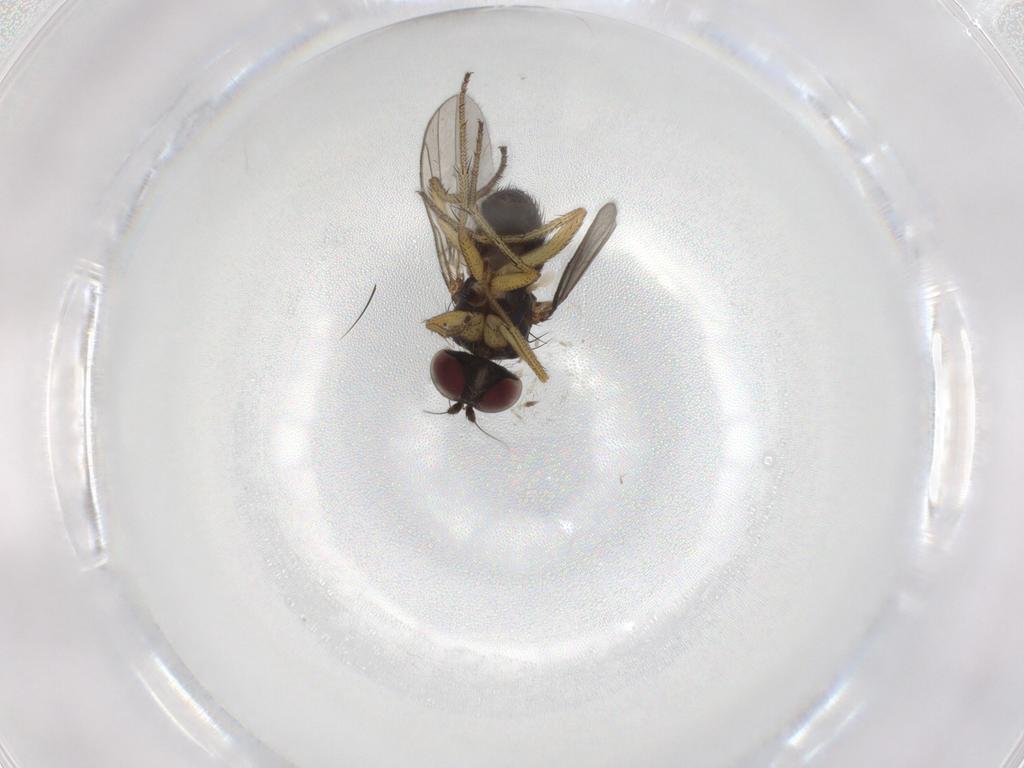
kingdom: Animalia
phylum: Arthropoda
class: Insecta
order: Diptera
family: Dolichopodidae
